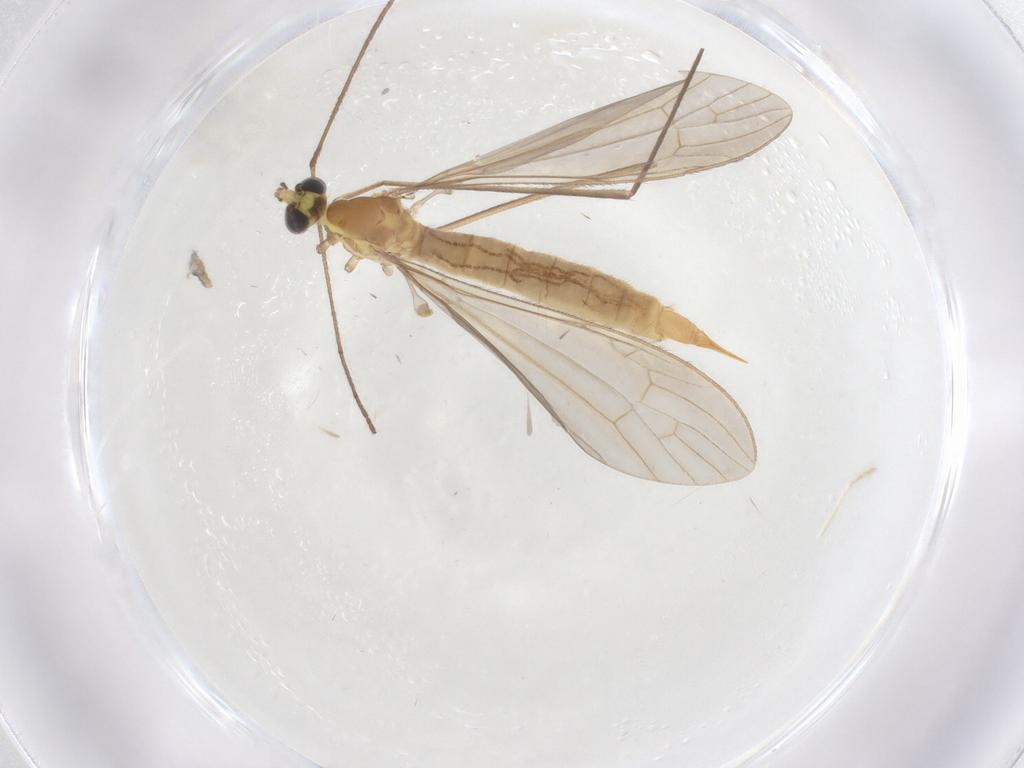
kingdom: Animalia
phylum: Arthropoda
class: Insecta
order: Diptera
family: Limoniidae
